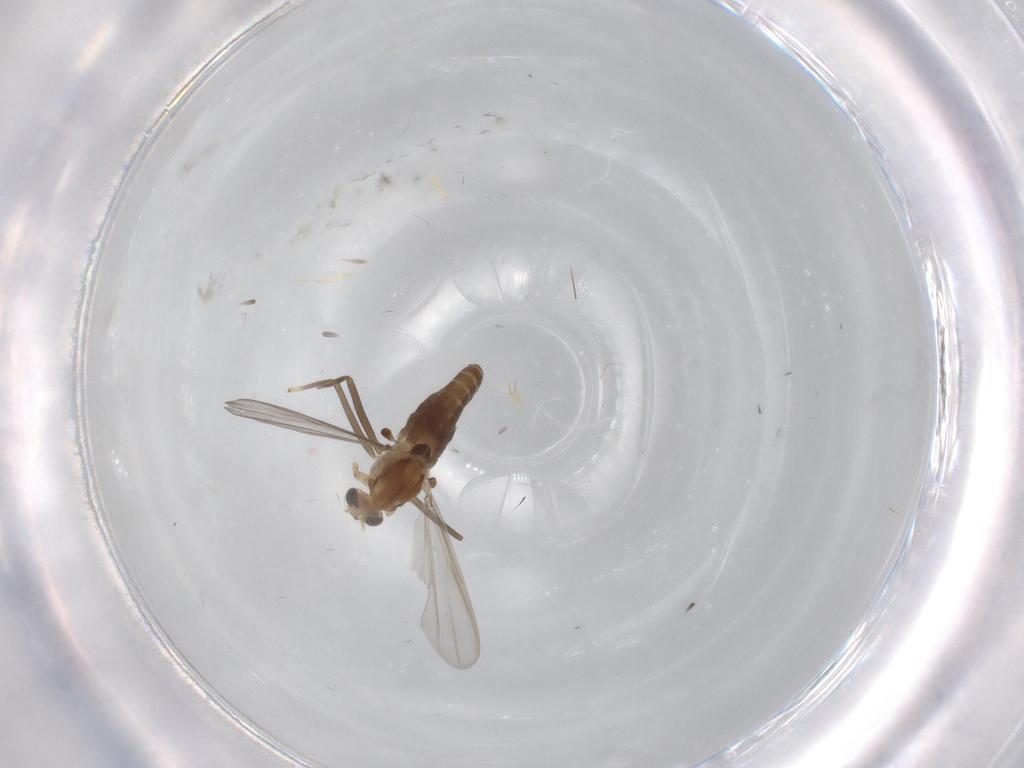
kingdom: Animalia
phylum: Arthropoda
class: Insecta
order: Diptera
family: Chironomidae
